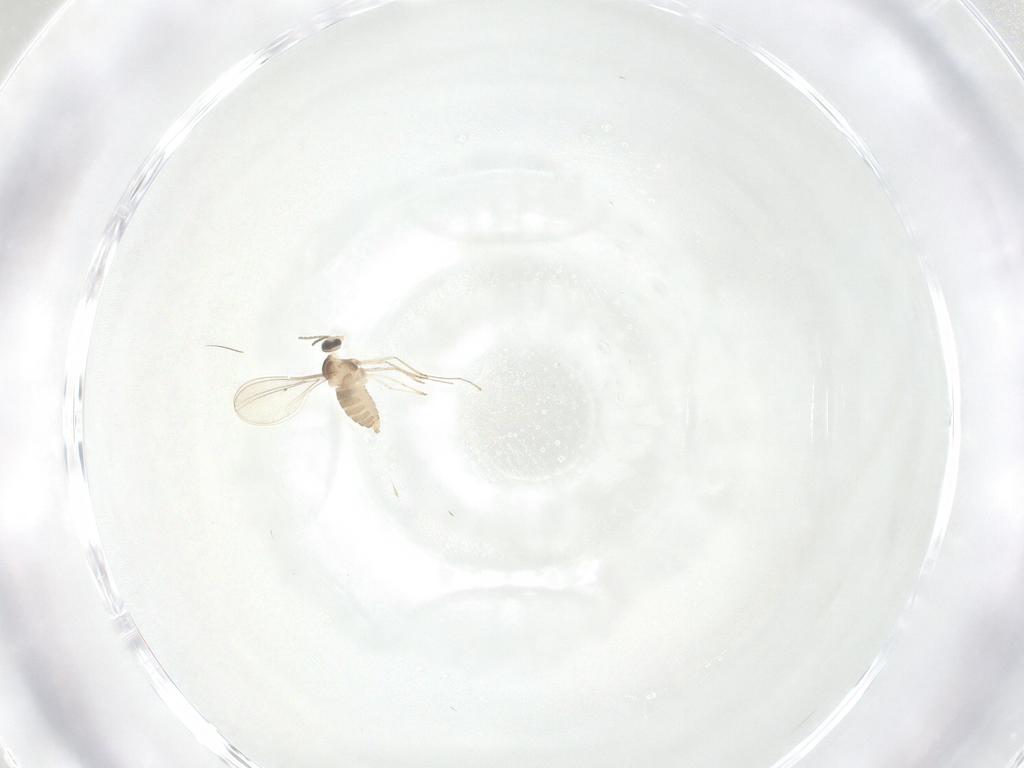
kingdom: Animalia
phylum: Arthropoda
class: Insecta
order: Diptera
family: Cecidomyiidae
